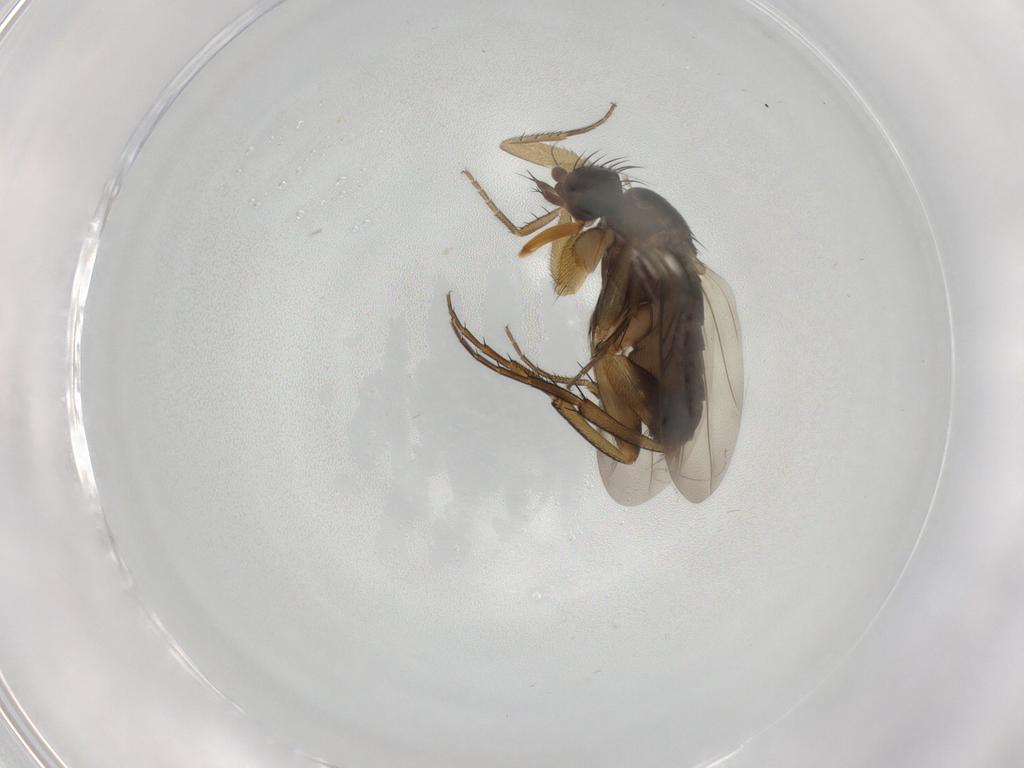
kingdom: Animalia
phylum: Arthropoda
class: Insecta
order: Diptera
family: Phoridae
